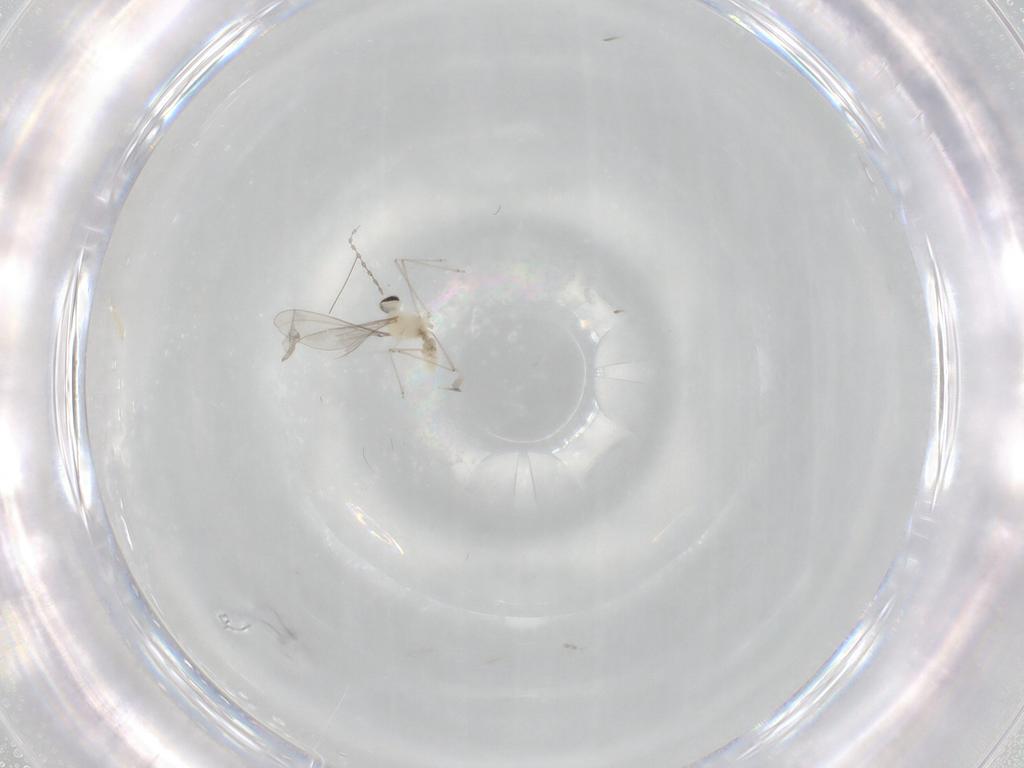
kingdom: Animalia
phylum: Arthropoda
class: Insecta
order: Diptera
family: Cecidomyiidae
